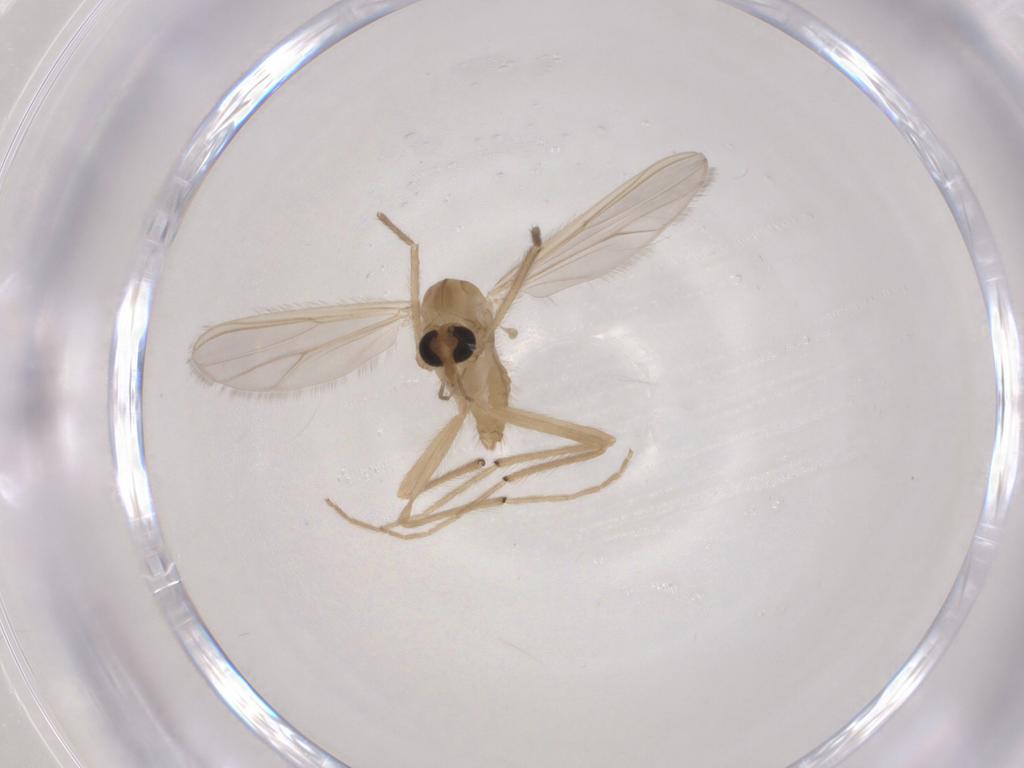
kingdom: Animalia
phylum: Arthropoda
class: Insecta
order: Diptera
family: Chironomidae
